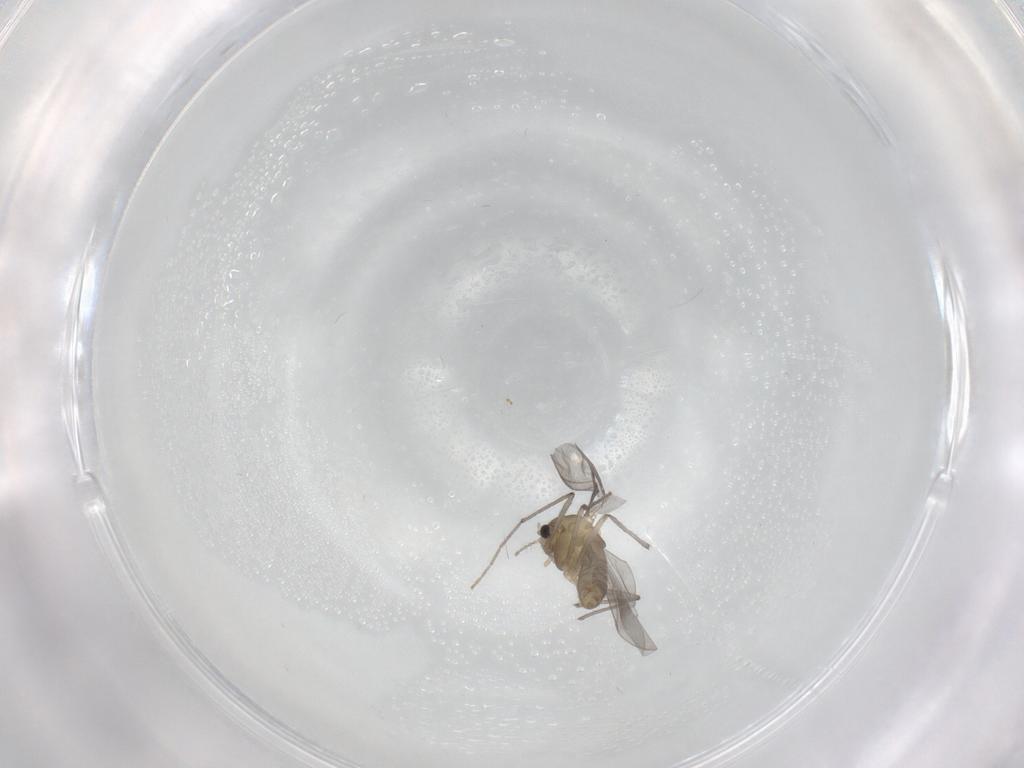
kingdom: Animalia
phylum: Arthropoda
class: Insecta
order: Diptera
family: Chironomidae
